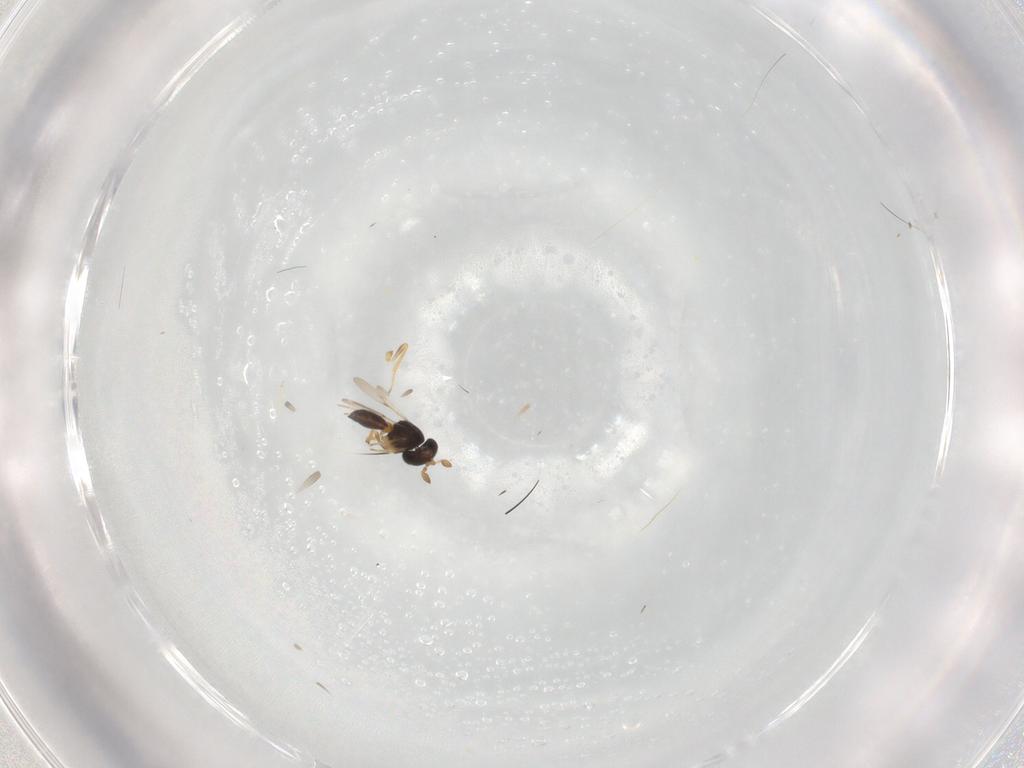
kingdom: Animalia
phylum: Arthropoda
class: Insecta
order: Hymenoptera
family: Scelionidae
